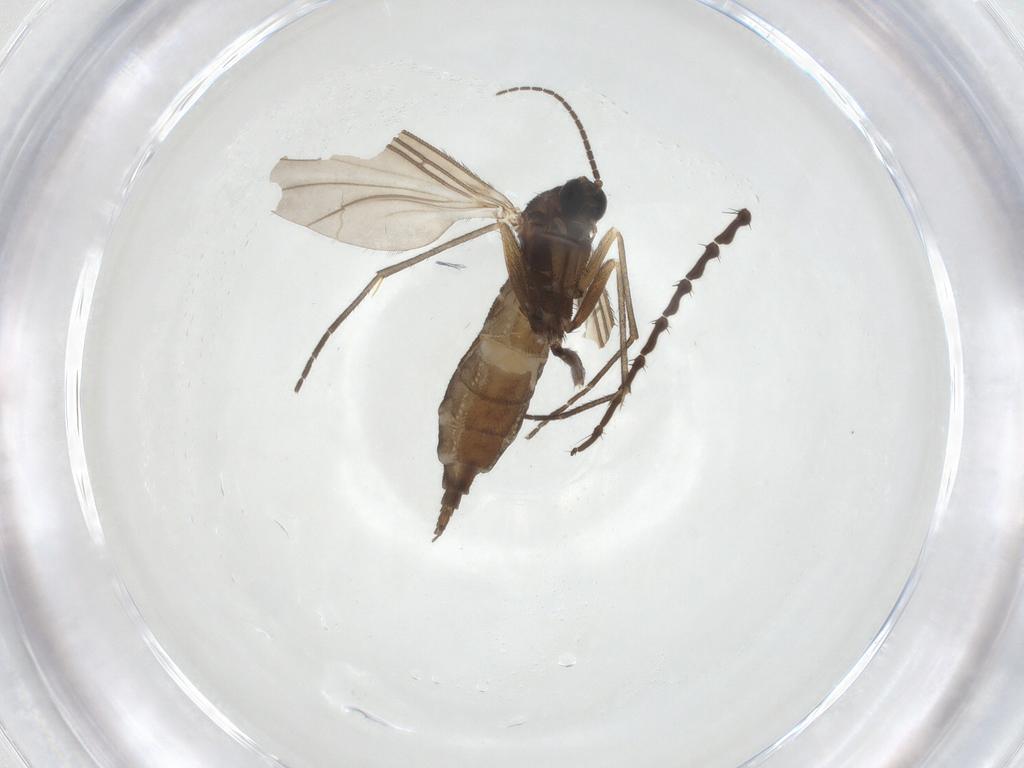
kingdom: Animalia
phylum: Arthropoda
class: Insecta
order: Diptera
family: Sciaridae
